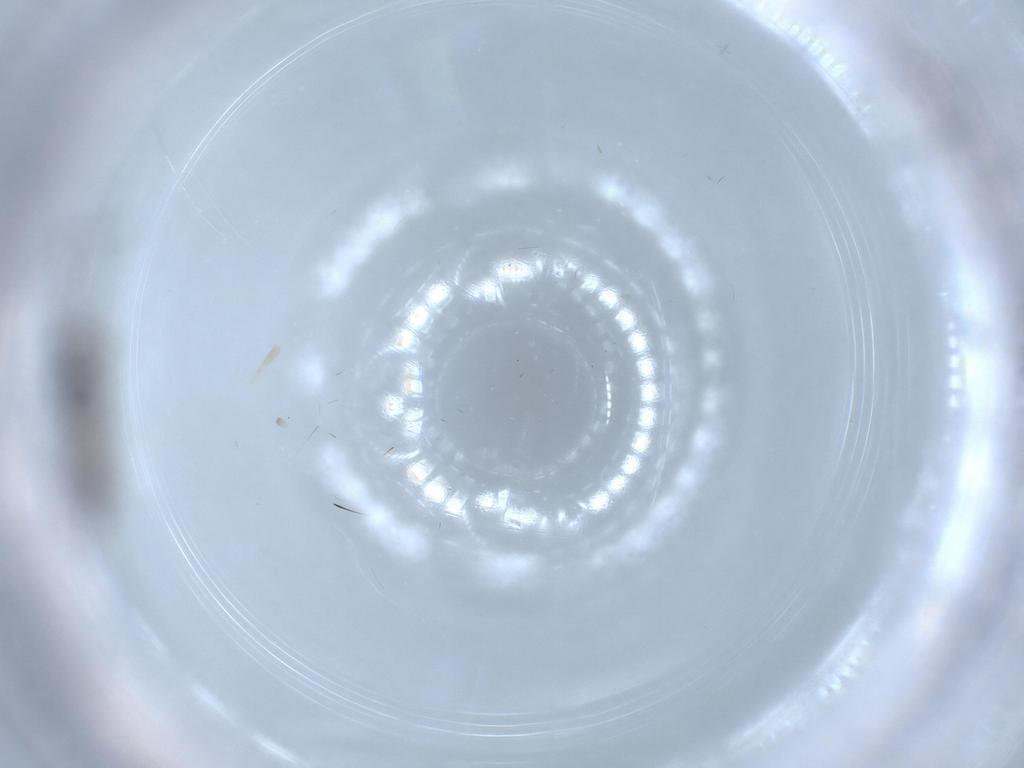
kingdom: Animalia
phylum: Arthropoda
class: Insecta
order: Hymenoptera
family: Scelionidae
